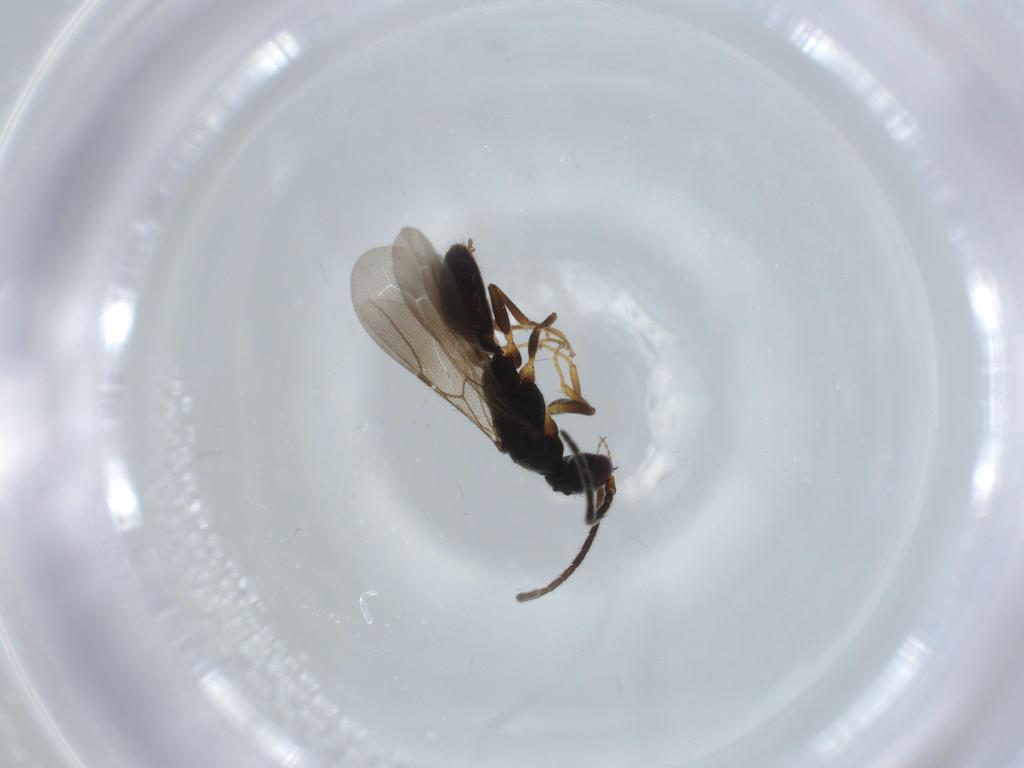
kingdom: Animalia
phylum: Arthropoda
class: Insecta
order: Hymenoptera
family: Bethylidae
